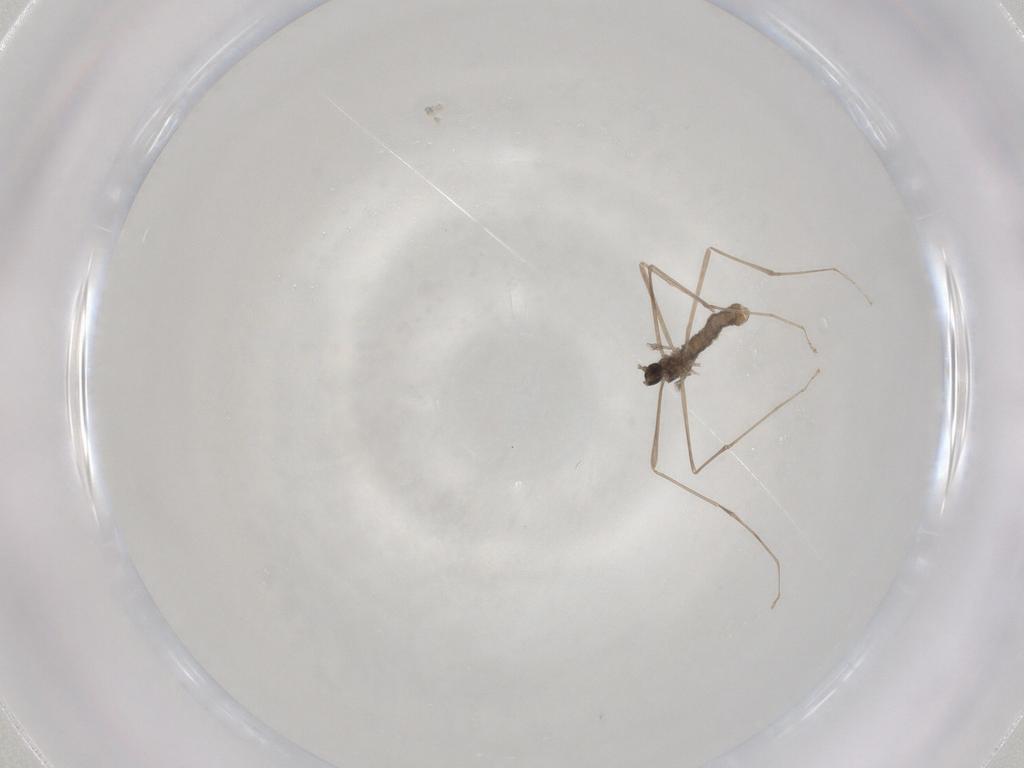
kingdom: Animalia
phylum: Arthropoda
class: Insecta
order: Diptera
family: Cecidomyiidae
